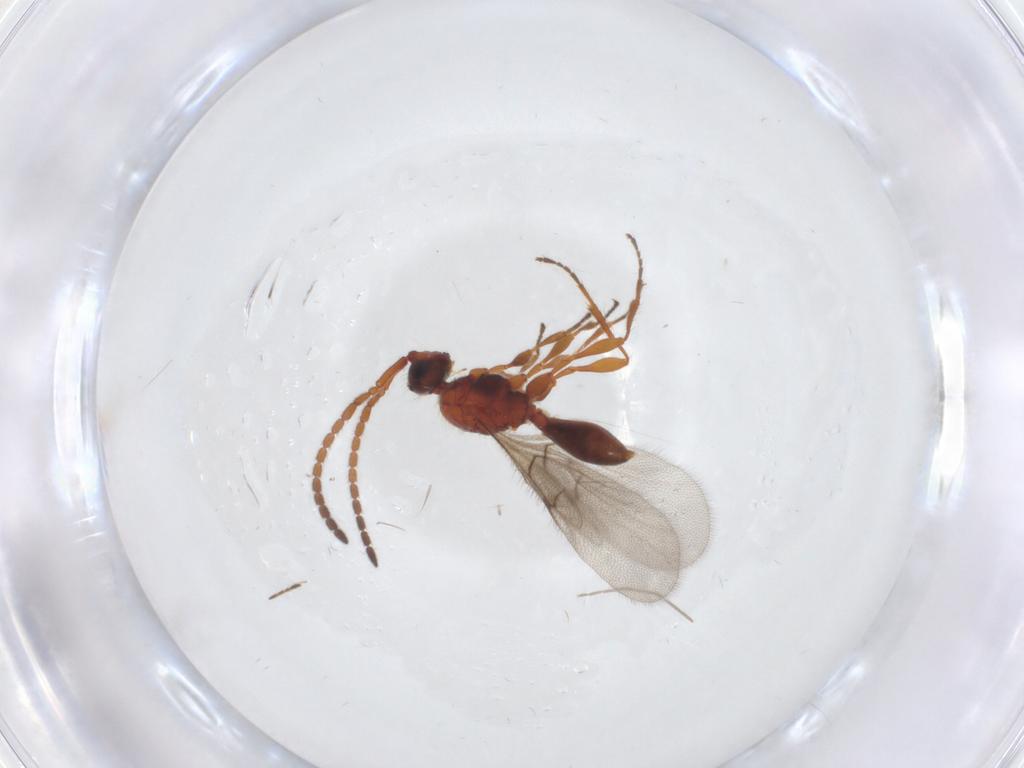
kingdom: Animalia
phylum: Arthropoda
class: Insecta
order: Hymenoptera
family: Diapriidae
